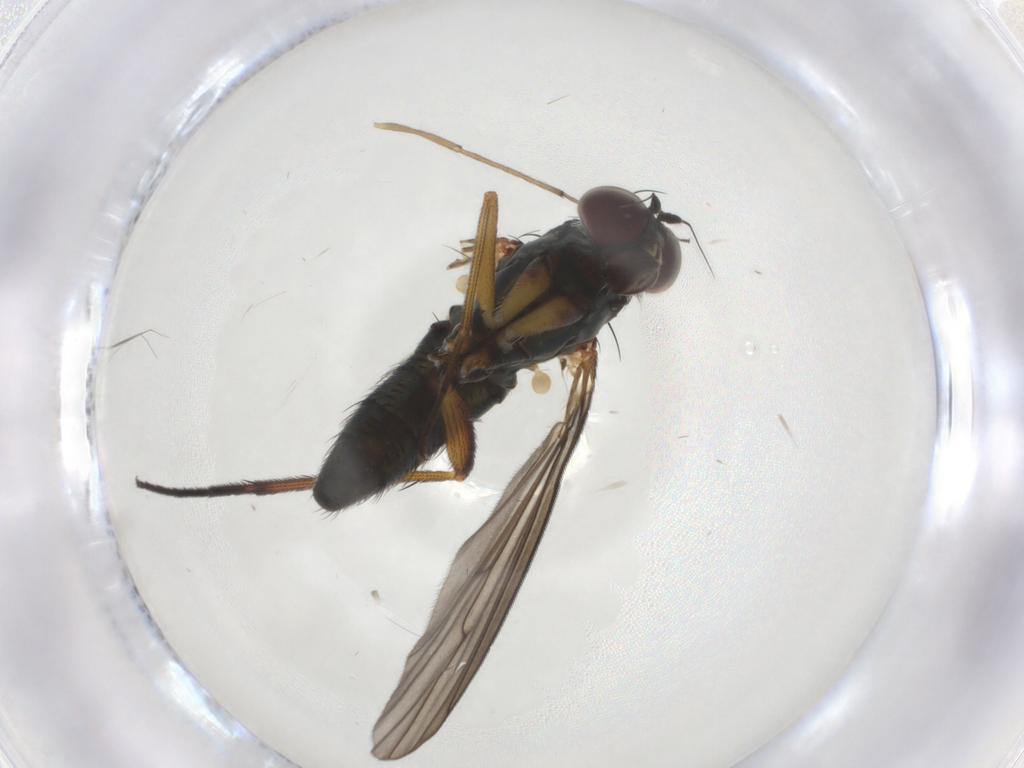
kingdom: Animalia
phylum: Arthropoda
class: Insecta
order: Diptera
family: Dolichopodidae
